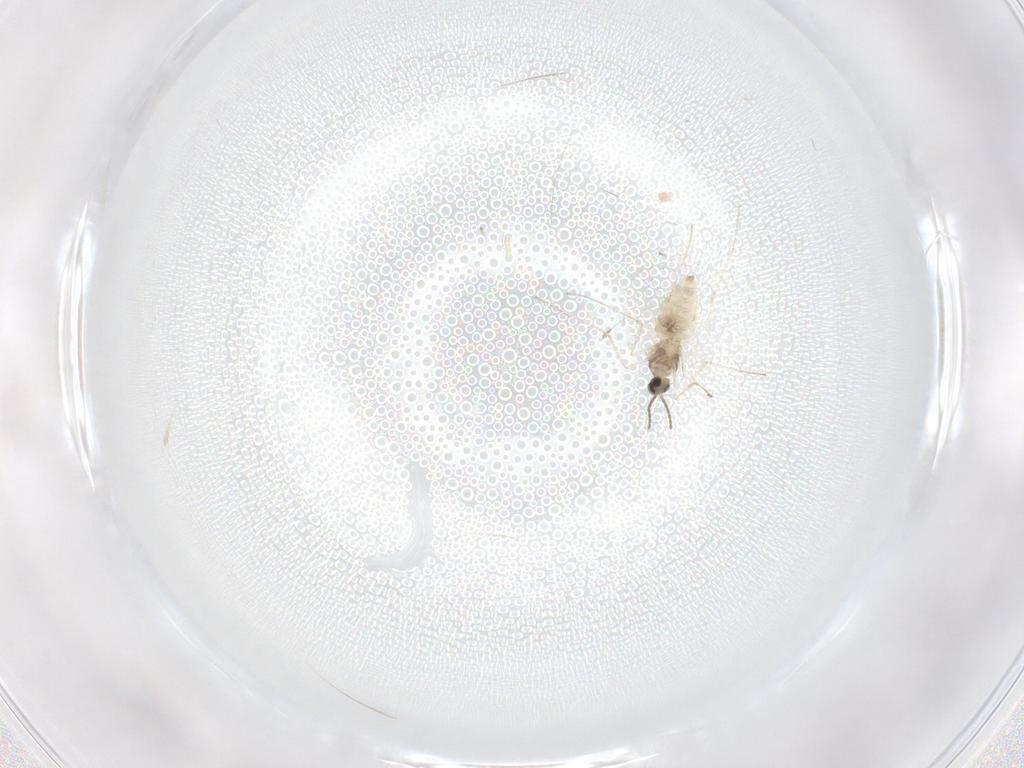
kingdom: Animalia
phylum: Arthropoda
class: Insecta
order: Diptera
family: Cecidomyiidae
